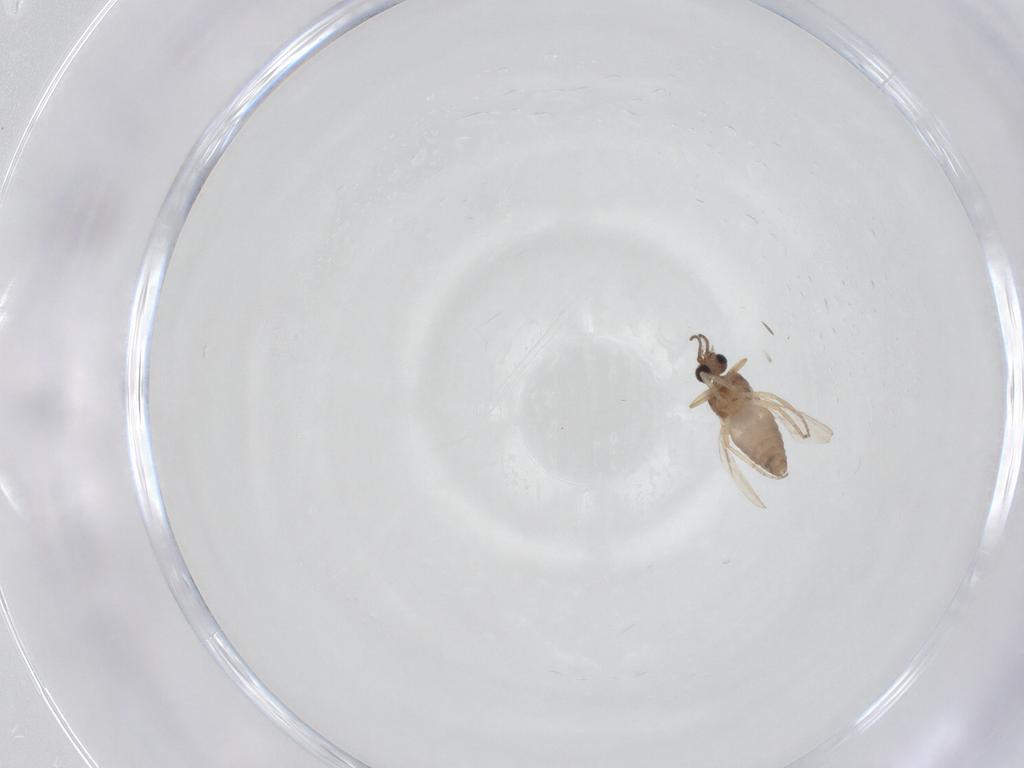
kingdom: Animalia
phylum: Arthropoda
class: Insecta
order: Diptera
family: Ceratopogonidae
